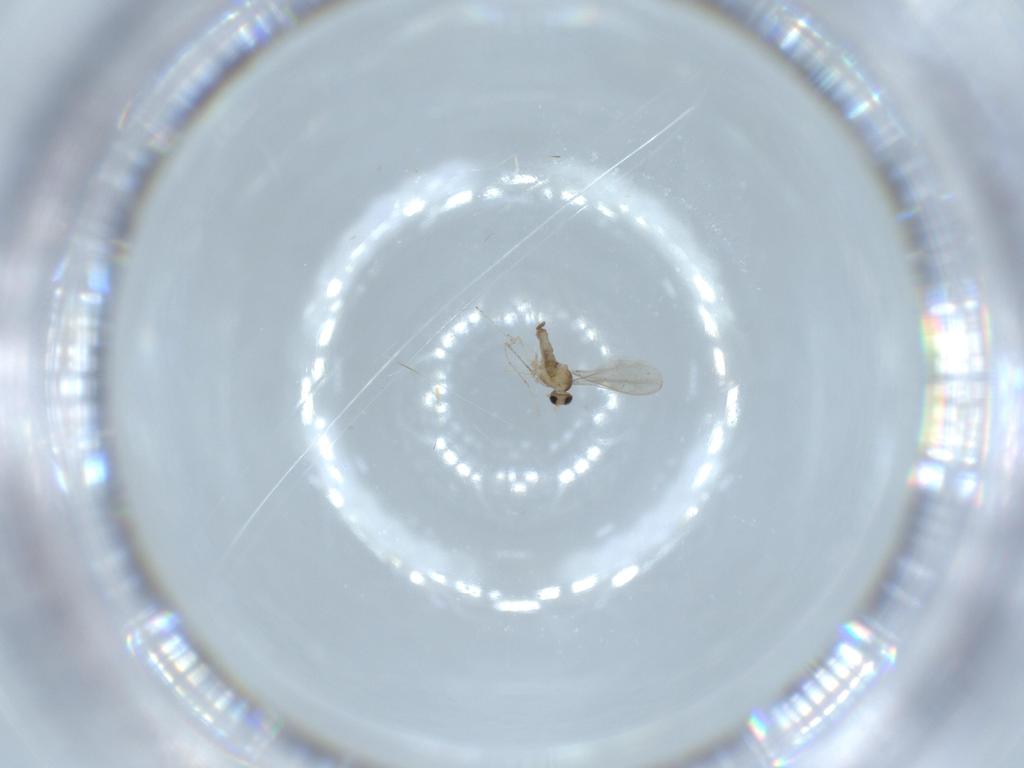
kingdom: Animalia
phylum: Arthropoda
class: Insecta
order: Diptera
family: Cecidomyiidae
